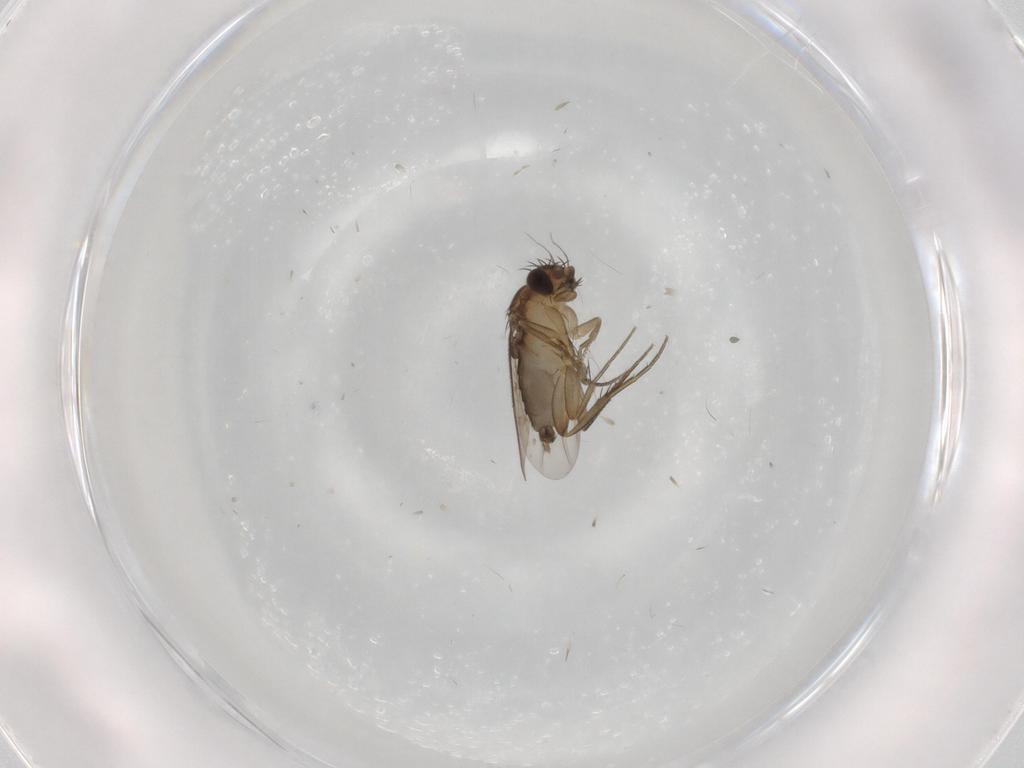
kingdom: Animalia
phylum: Arthropoda
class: Insecta
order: Diptera
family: Phoridae
